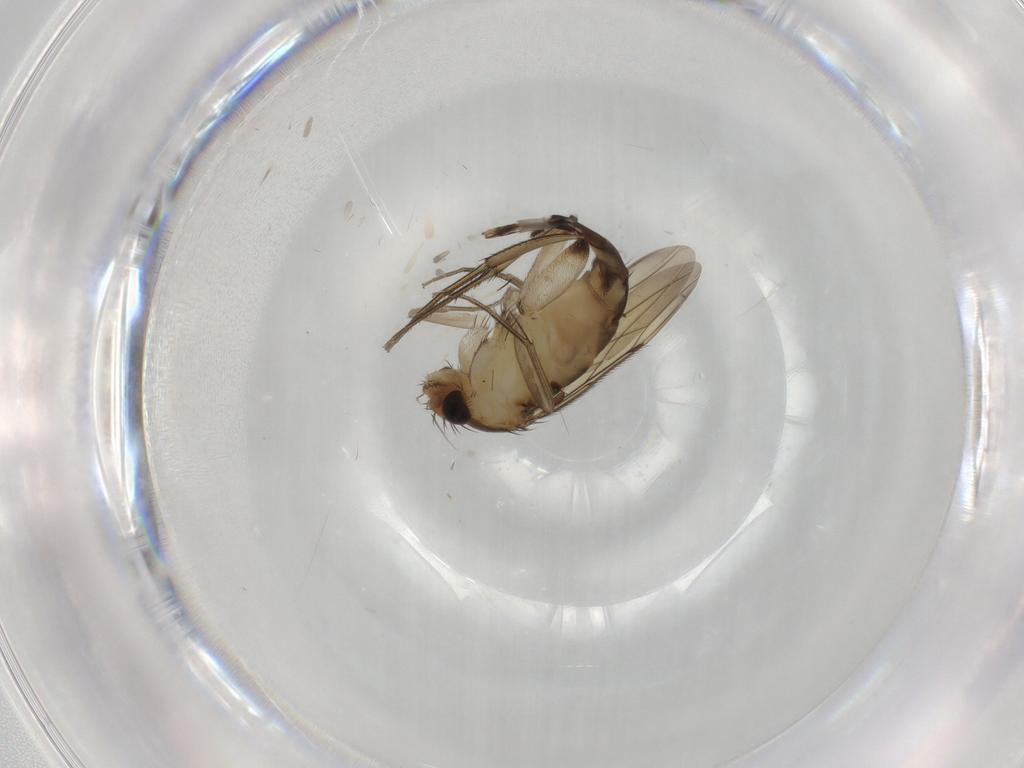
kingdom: Animalia
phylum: Arthropoda
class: Insecta
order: Diptera
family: Phoridae
